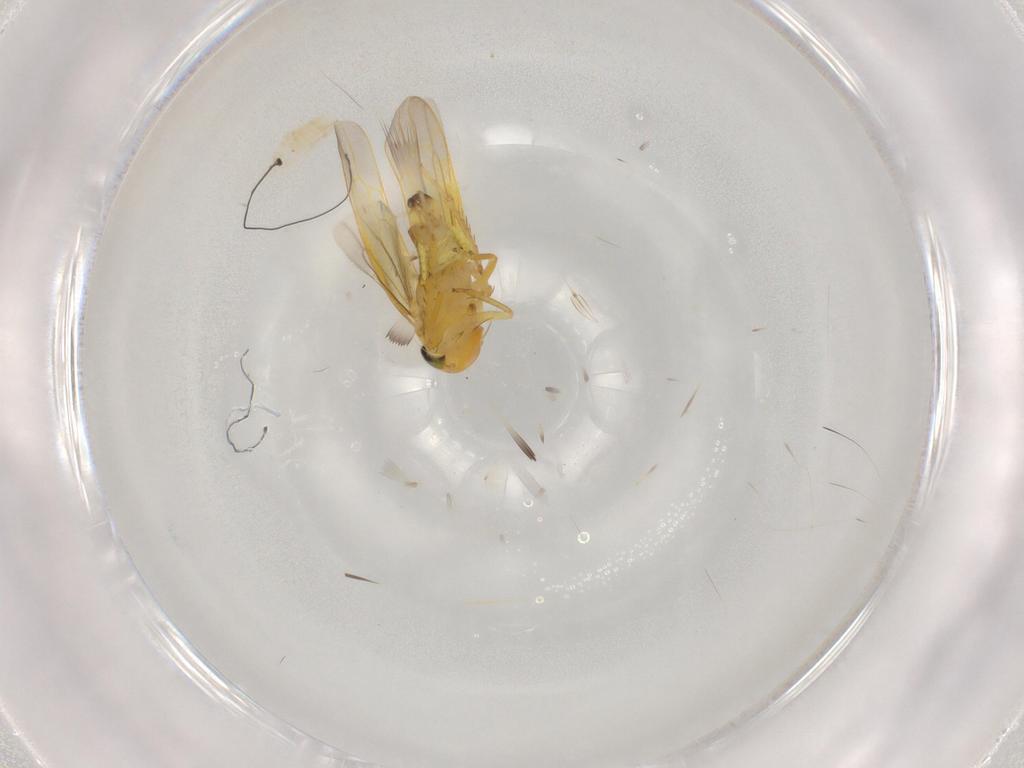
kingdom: Animalia
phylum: Arthropoda
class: Insecta
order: Hemiptera
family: Cicadellidae
